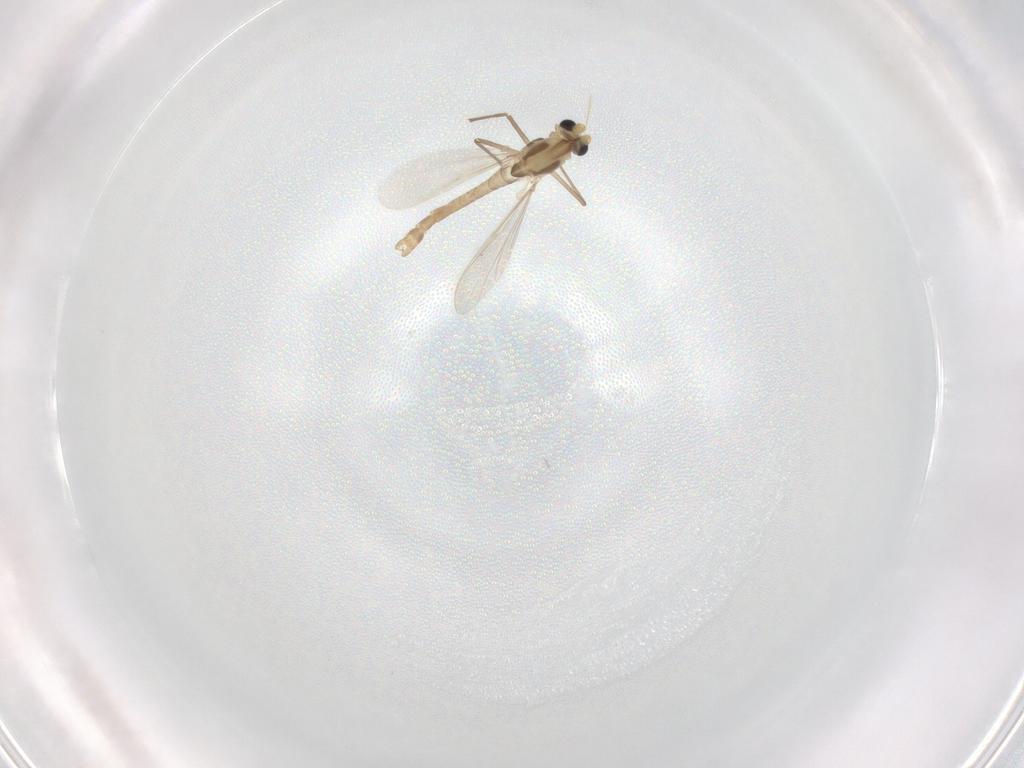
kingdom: Animalia
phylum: Arthropoda
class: Insecta
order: Diptera
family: Chironomidae
